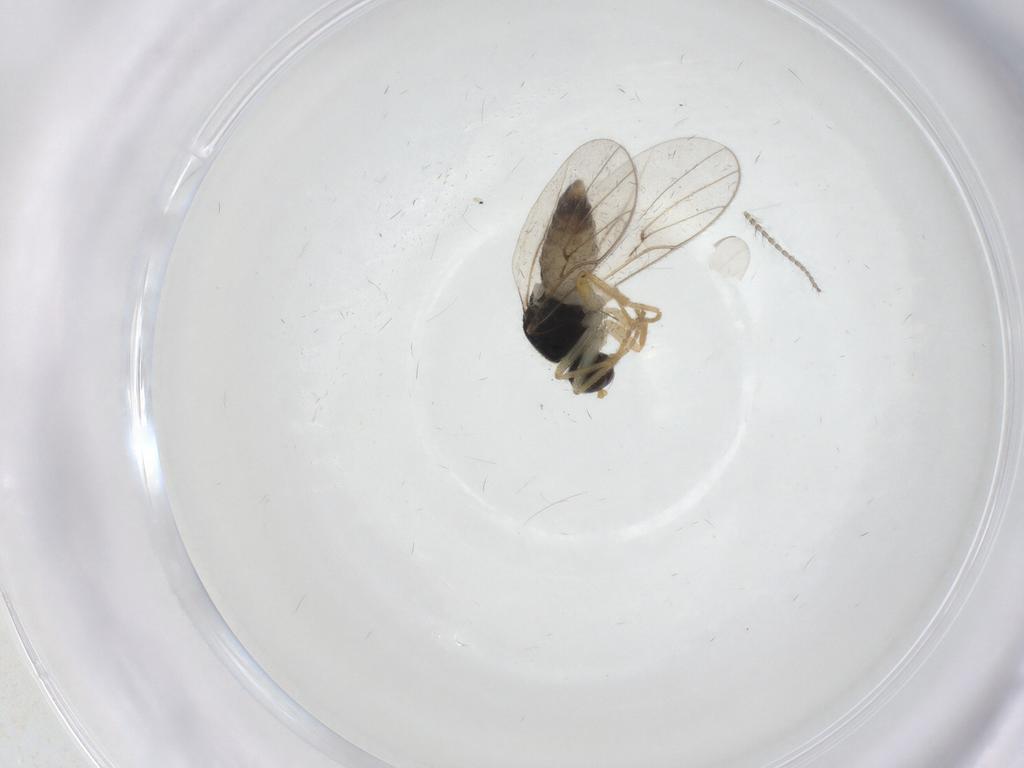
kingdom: Animalia
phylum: Arthropoda
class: Insecta
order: Diptera
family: Hybotidae
